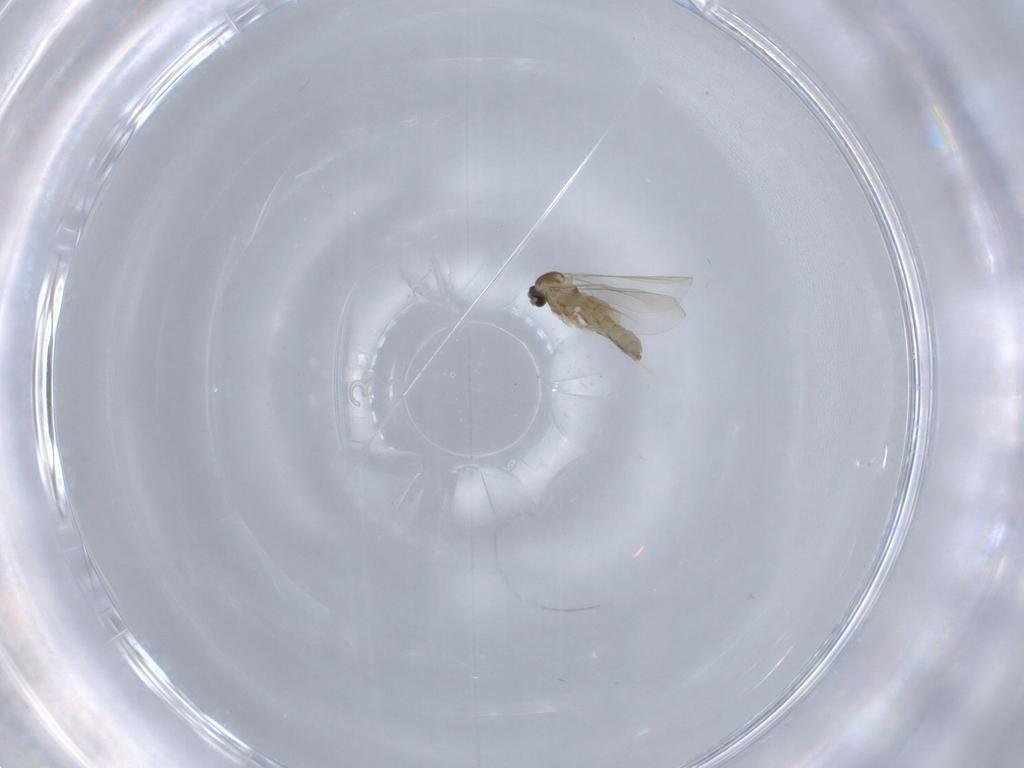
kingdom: Animalia
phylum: Arthropoda
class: Insecta
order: Diptera
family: Cecidomyiidae
